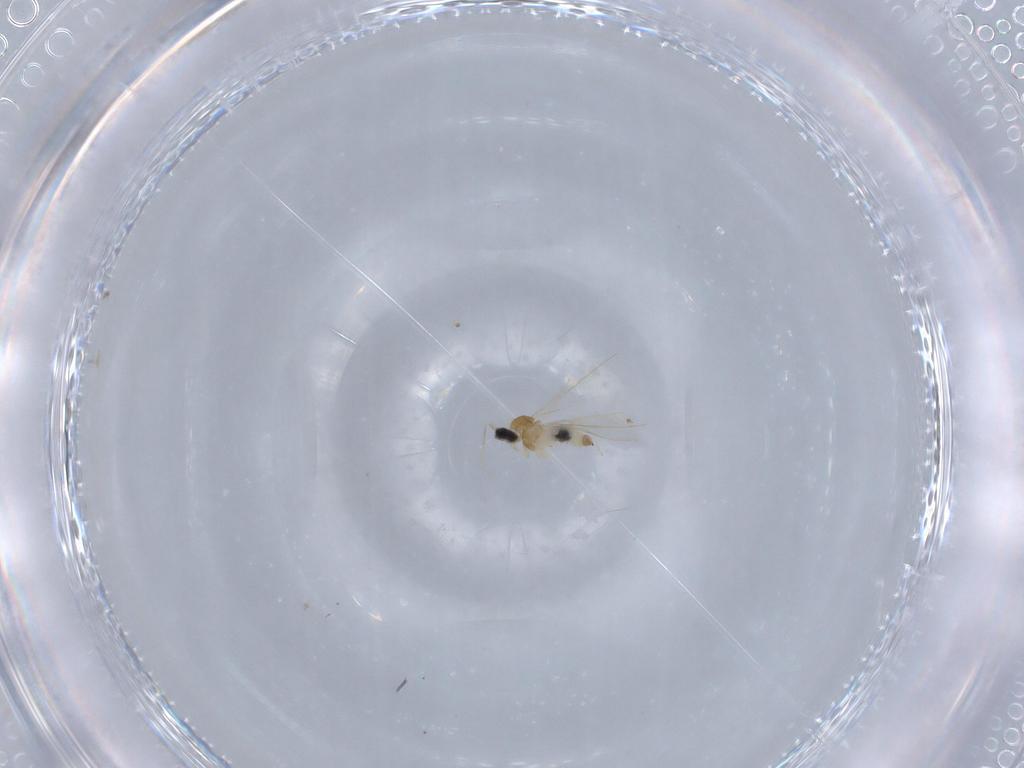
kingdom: Animalia
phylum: Arthropoda
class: Insecta
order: Diptera
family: Cecidomyiidae
